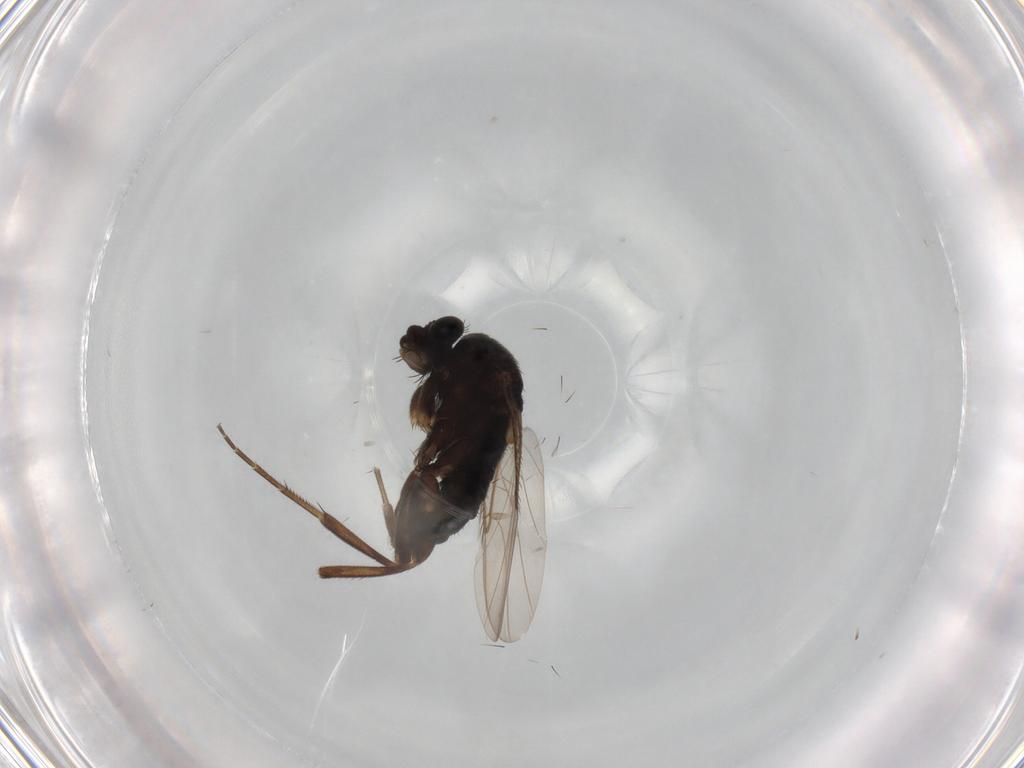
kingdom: Animalia
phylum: Arthropoda
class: Insecta
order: Diptera
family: Phoridae
